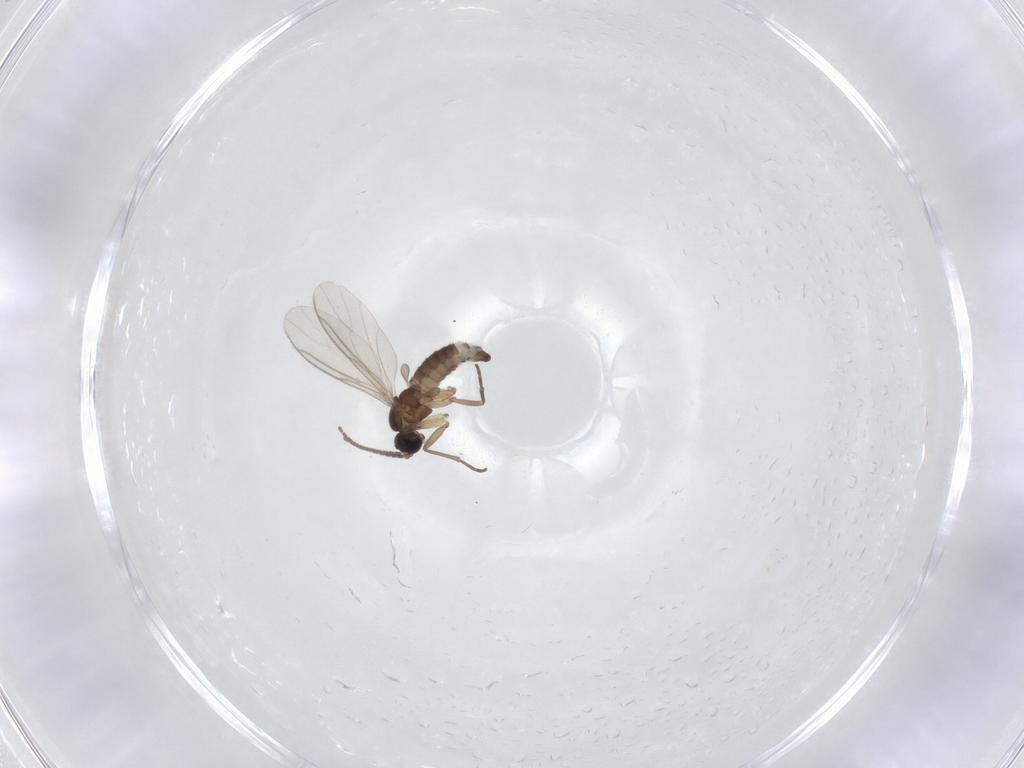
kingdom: Animalia
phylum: Arthropoda
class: Insecta
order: Diptera
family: Sciaridae
